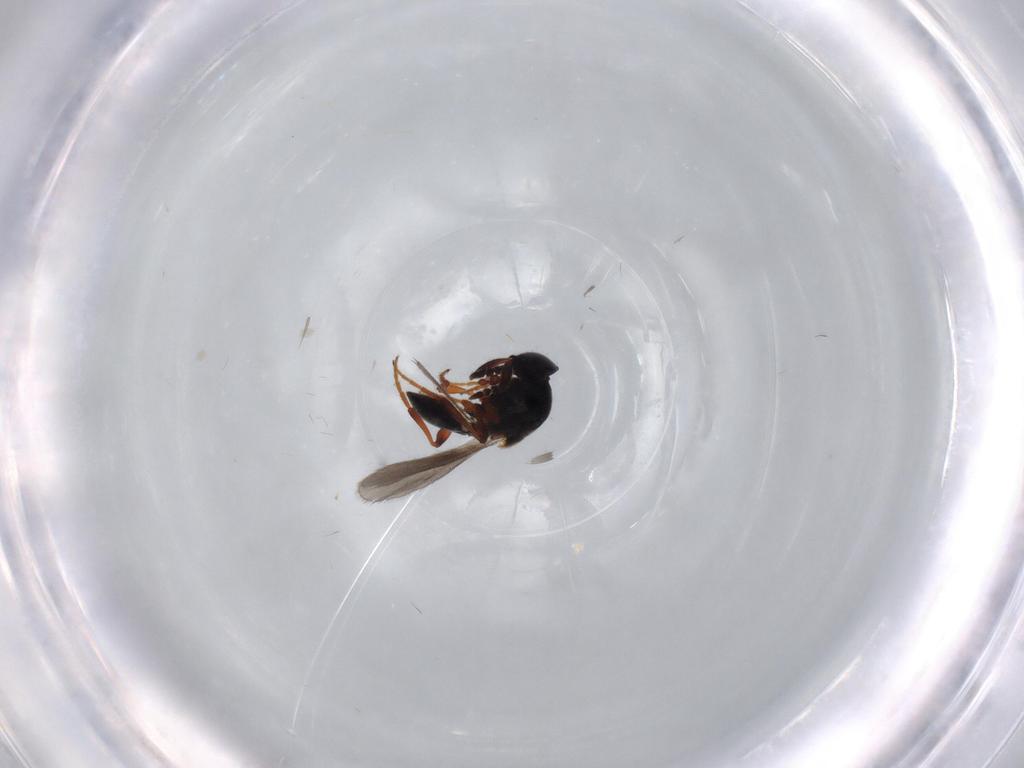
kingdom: Animalia
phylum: Arthropoda
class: Insecta
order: Hymenoptera
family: Platygastridae
